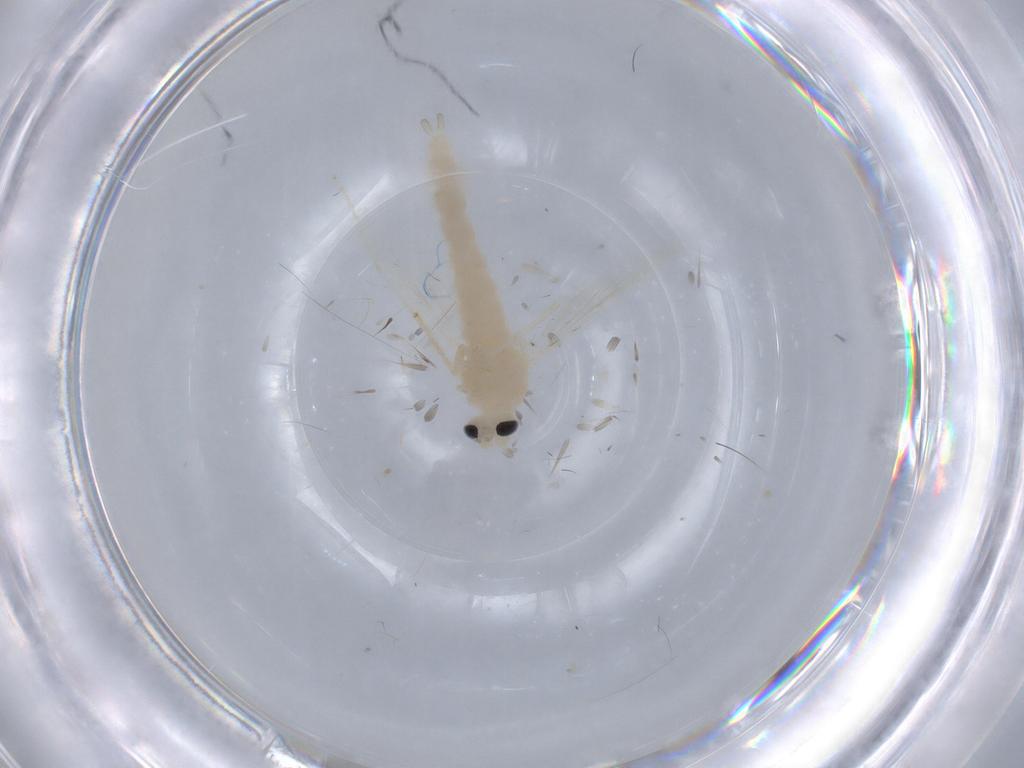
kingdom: Animalia
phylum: Arthropoda
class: Insecta
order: Diptera
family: Chironomidae
